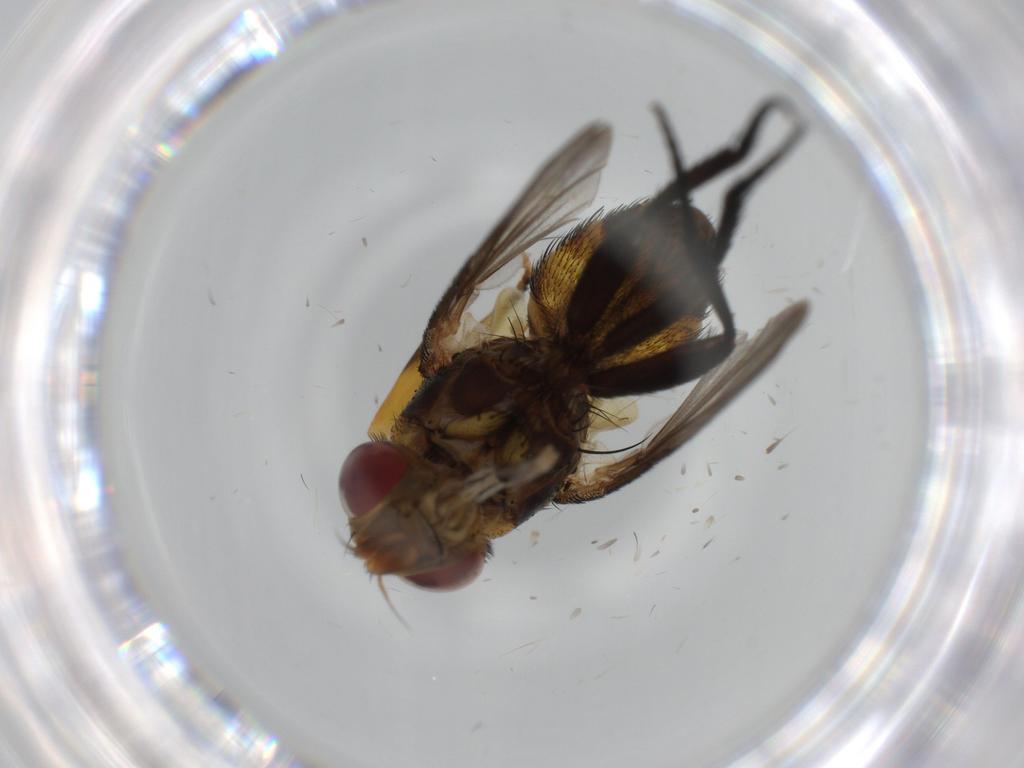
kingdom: Animalia
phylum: Arthropoda
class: Insecta
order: Diptera
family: Milichiidae
